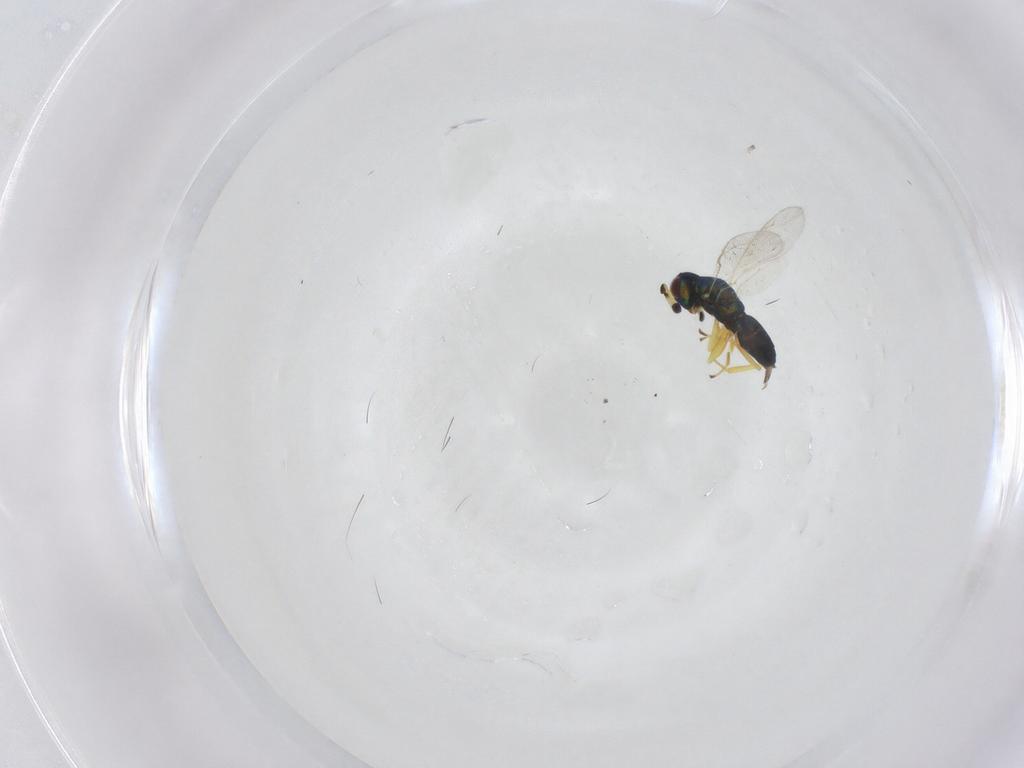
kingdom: Animalia
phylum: Arthropoda
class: Insecta
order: Hymenoptera
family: Pteromalidae
